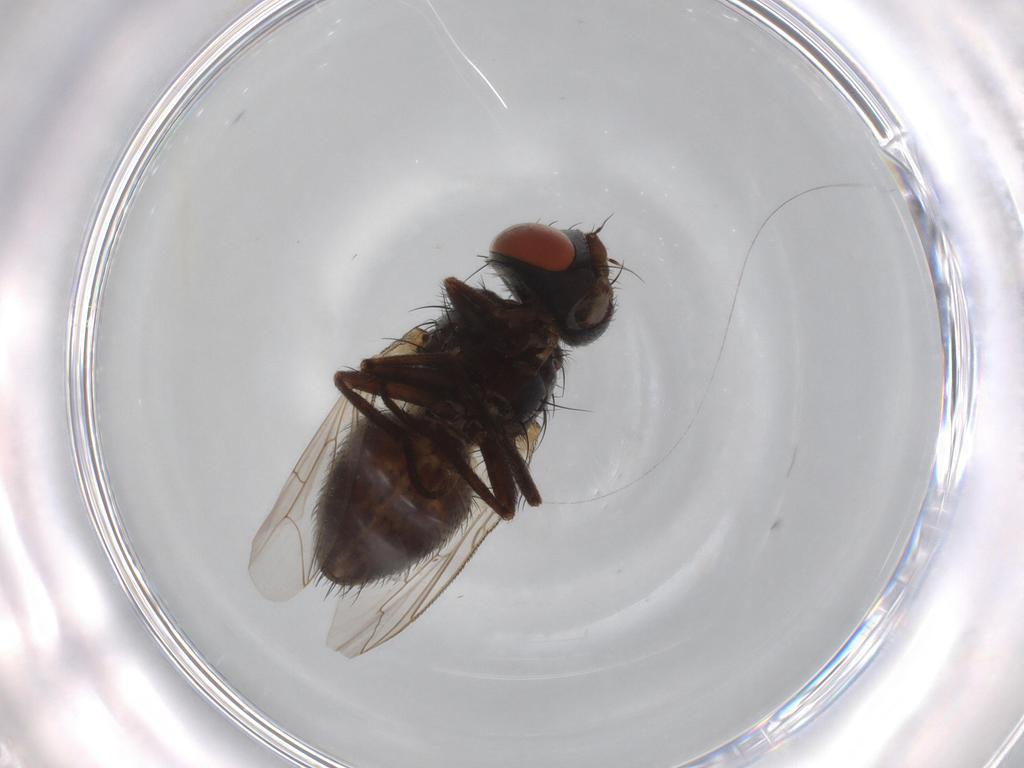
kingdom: Animalia
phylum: Arthropoda
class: Insecta
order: Diptera
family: Sarcophagidae
